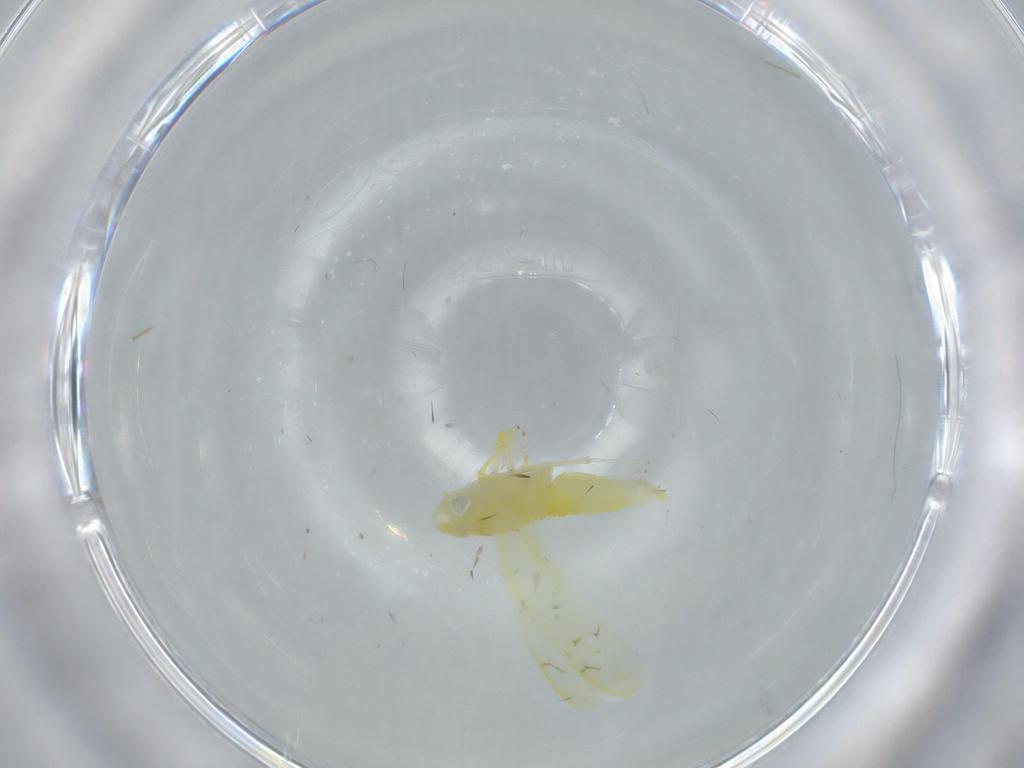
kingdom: Animalia
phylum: Arthropoda
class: Insecta
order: Hemiptera
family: Cicadellidae
